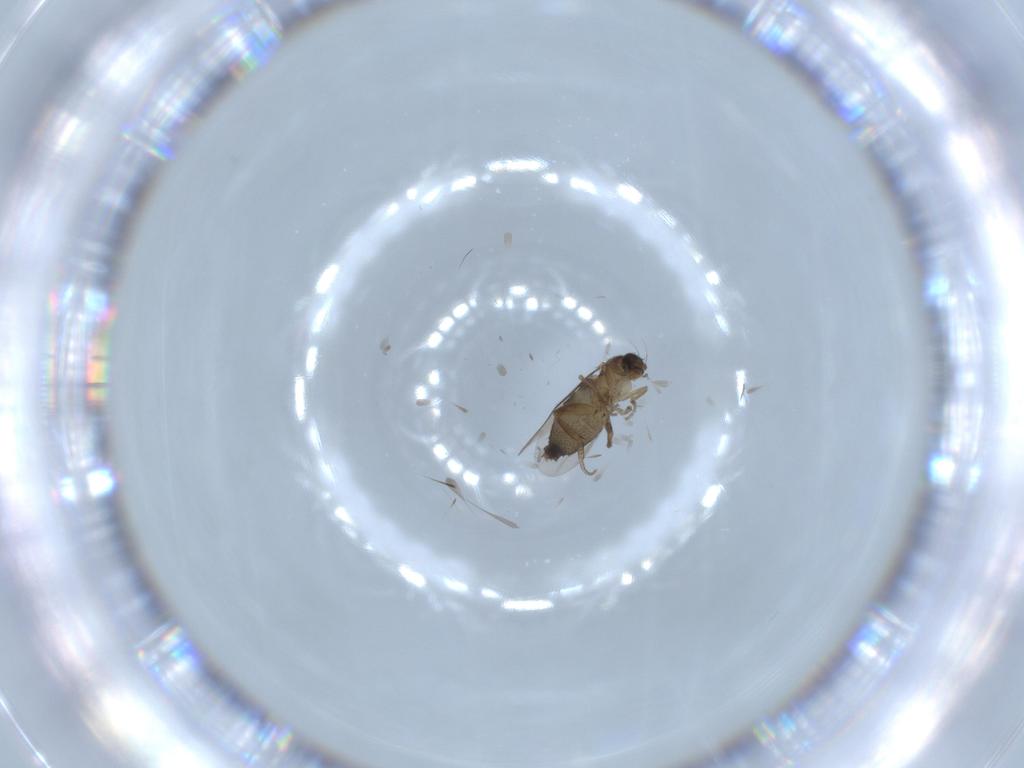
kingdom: Animalia
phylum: Arthropoda
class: Insecta
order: Diptera
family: Phoridae
